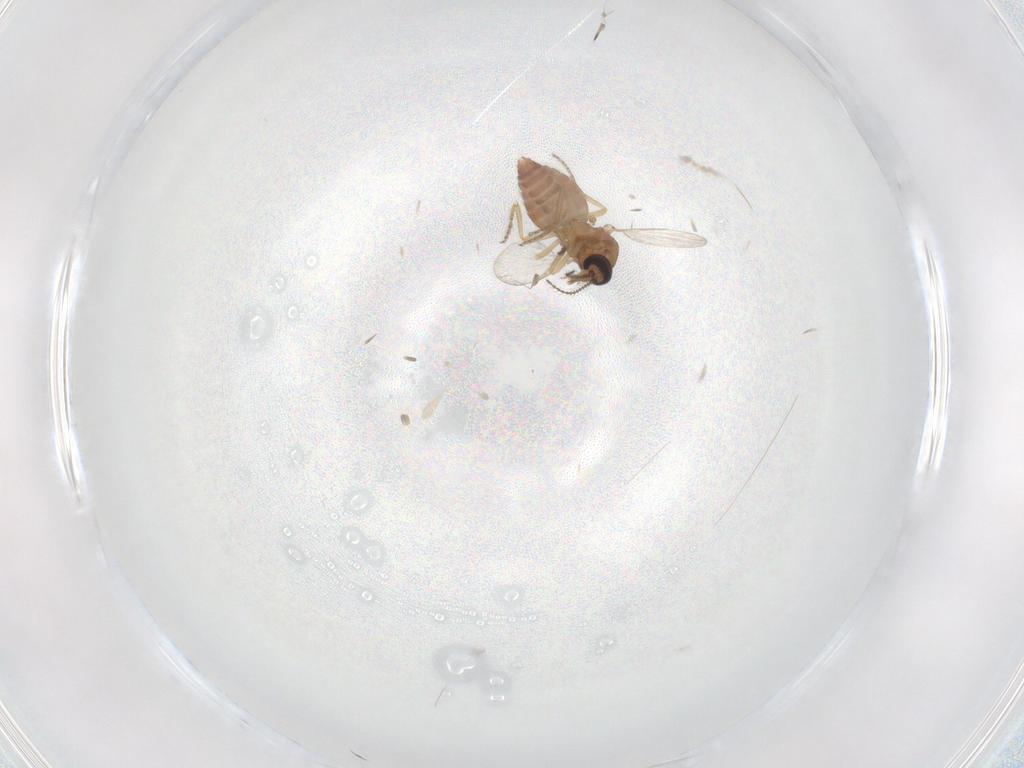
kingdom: Animalia
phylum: Arthropoda
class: Insecta
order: Diptera
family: Ceratopogonidae
